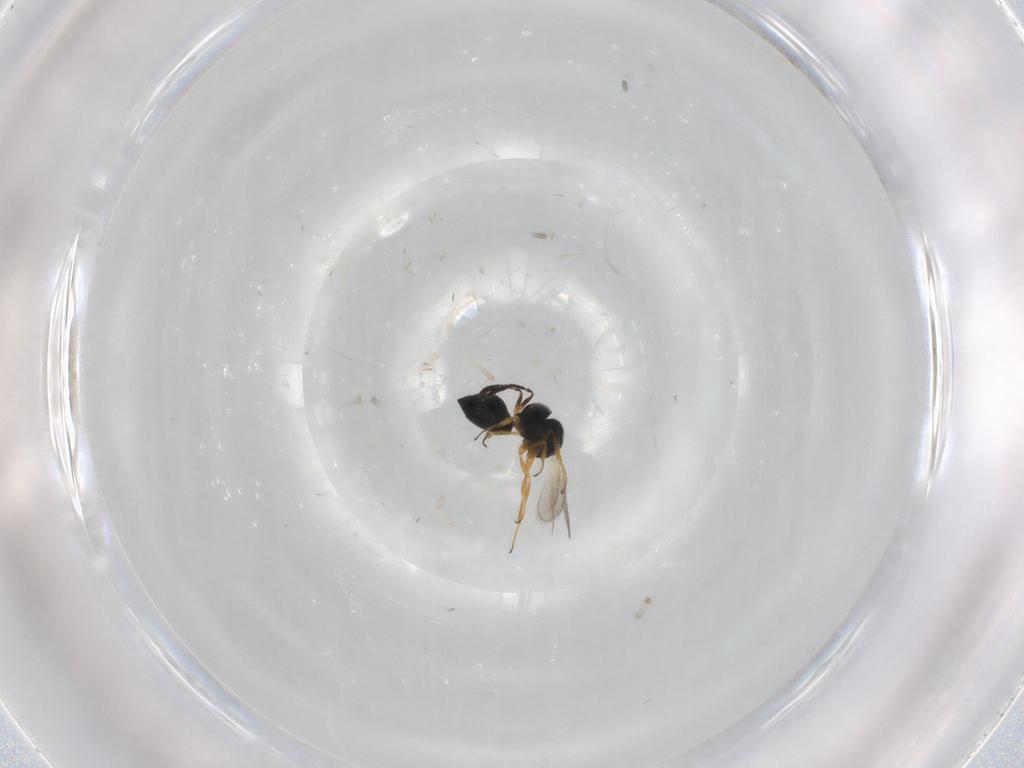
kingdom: Animalia
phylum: Arthropoda
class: Insecta
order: Hymenoptera
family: Scelionidae
